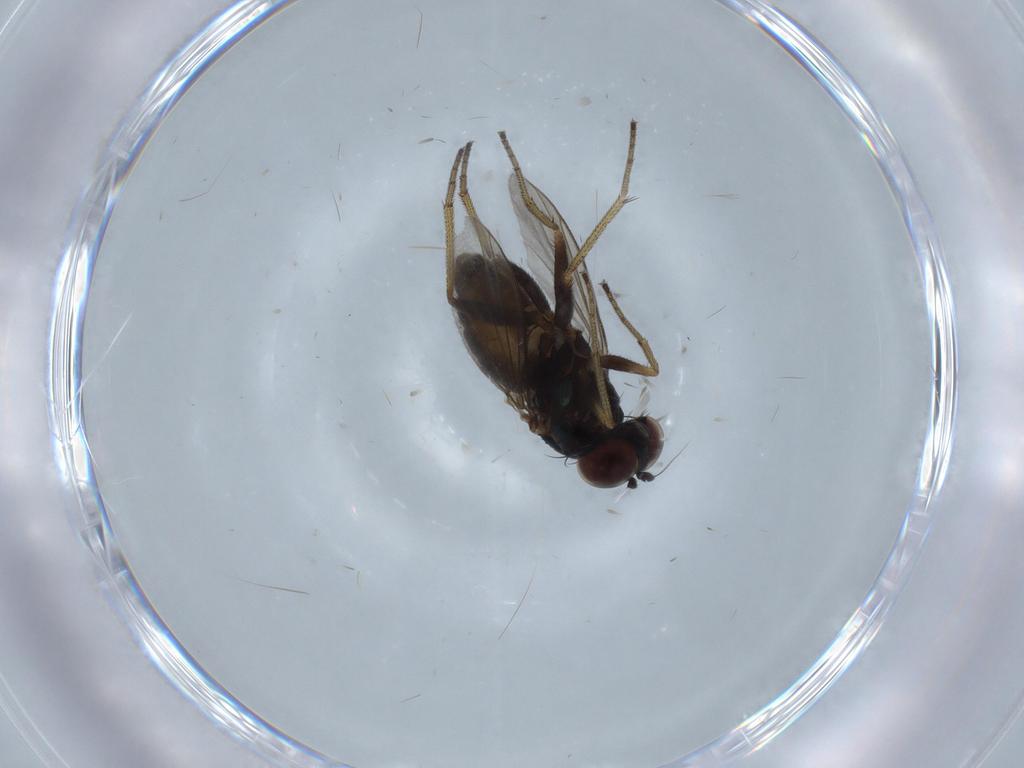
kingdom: Animalia
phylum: Arthropoda
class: Insecta
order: Diptera
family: Dolichopodidae
